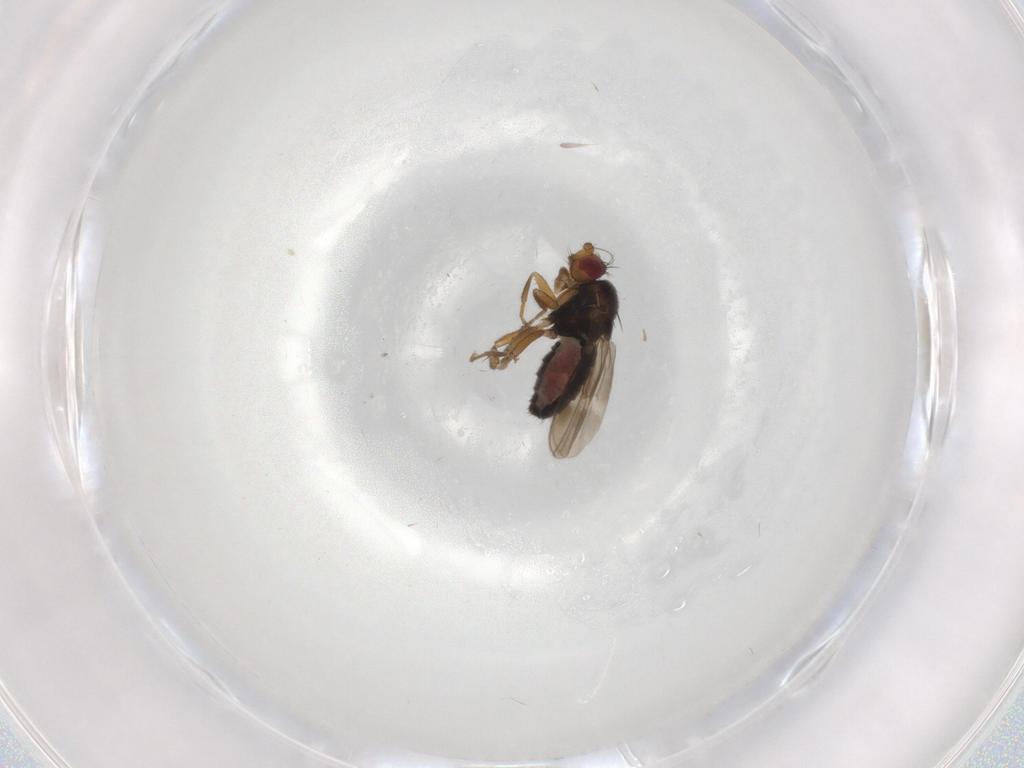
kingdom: Animalia
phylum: Arthropoda
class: Insecta
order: Diptera
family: Sphaeroceridae
